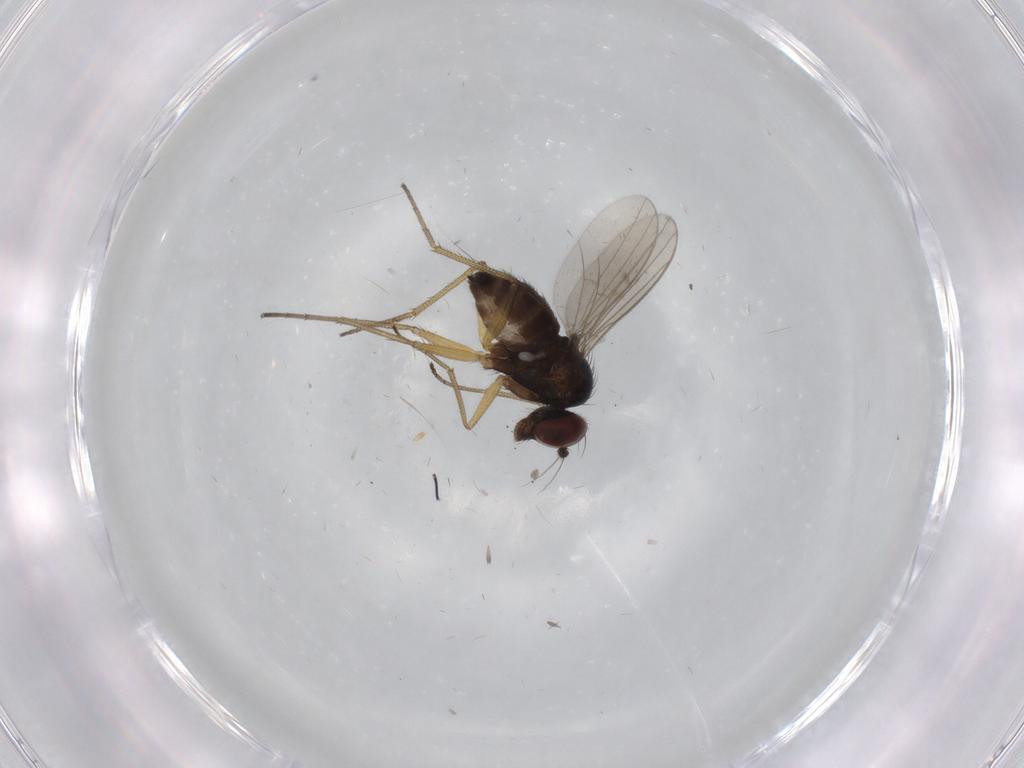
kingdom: Animalia
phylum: Arthropoda
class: Insecta
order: Diptera
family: Dolichopodidae
